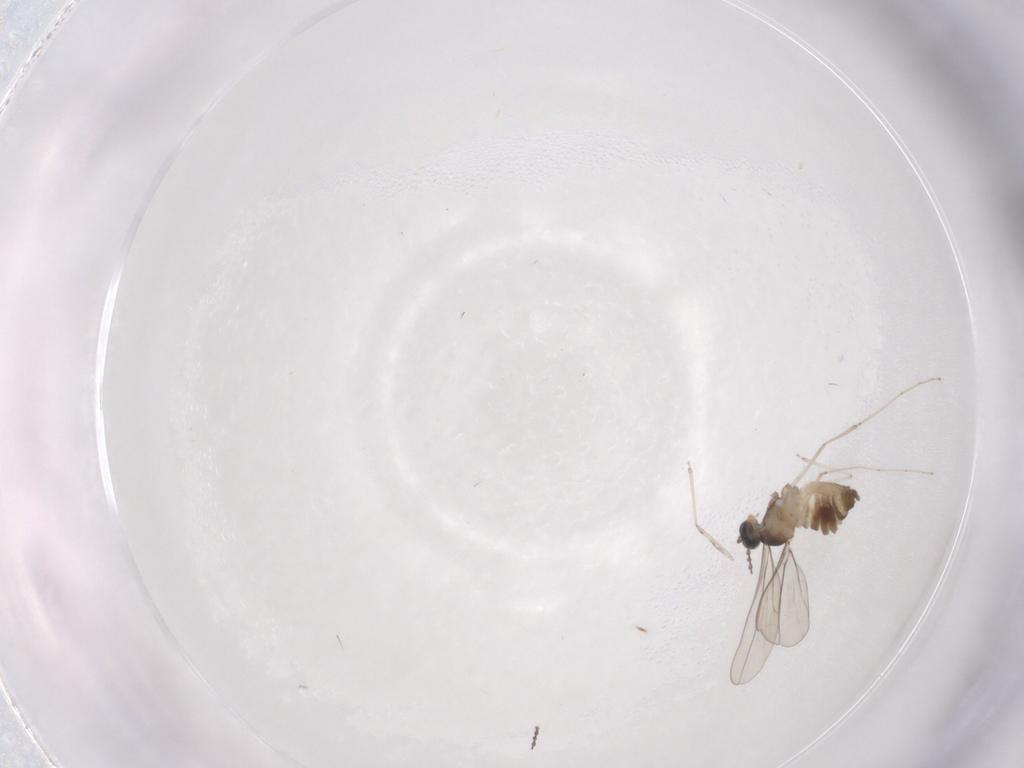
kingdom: Animalia
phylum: Arthropoda
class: Insecta
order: Diptera
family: Cecidomyiidae
